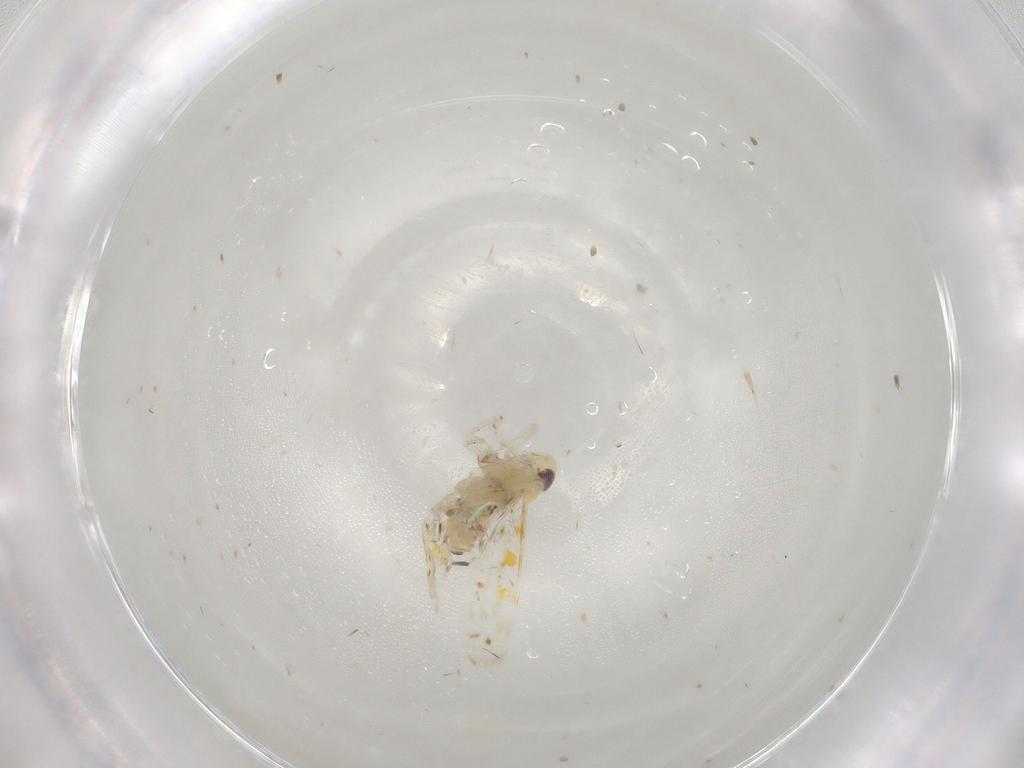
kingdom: Animalia
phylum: Arthropoda
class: Insecta
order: Hemiptera
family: Cicadellidae
